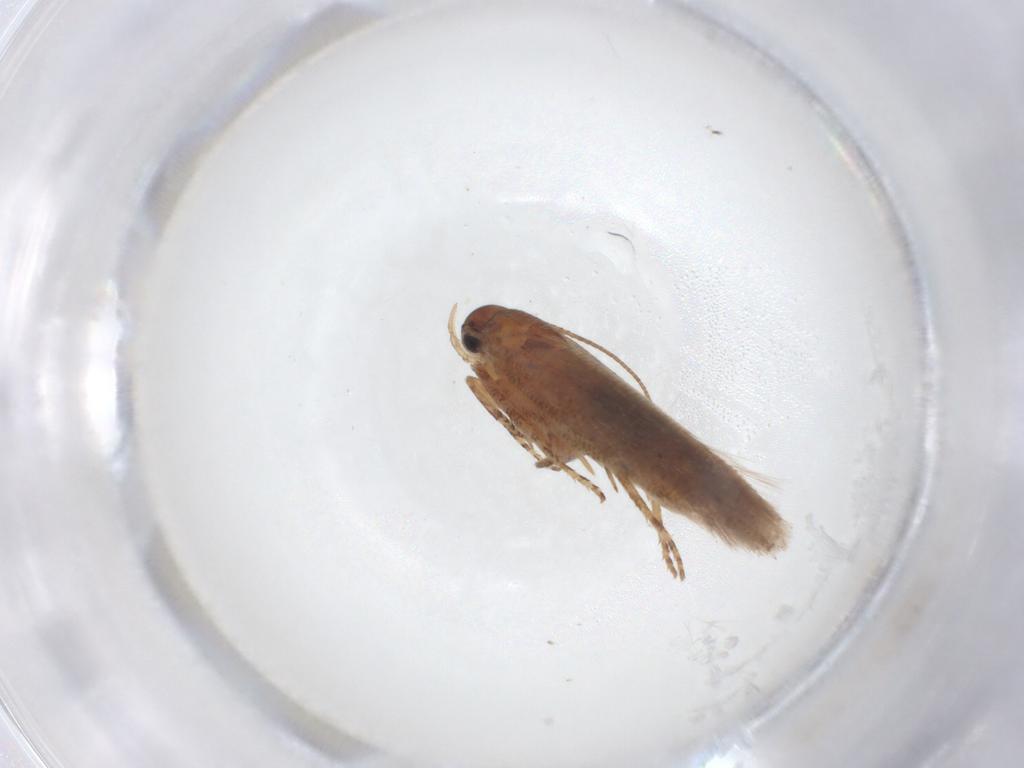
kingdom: Animalia
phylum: Arthropoda
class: Insecta
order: Lepidoptera
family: Gelechiidae
